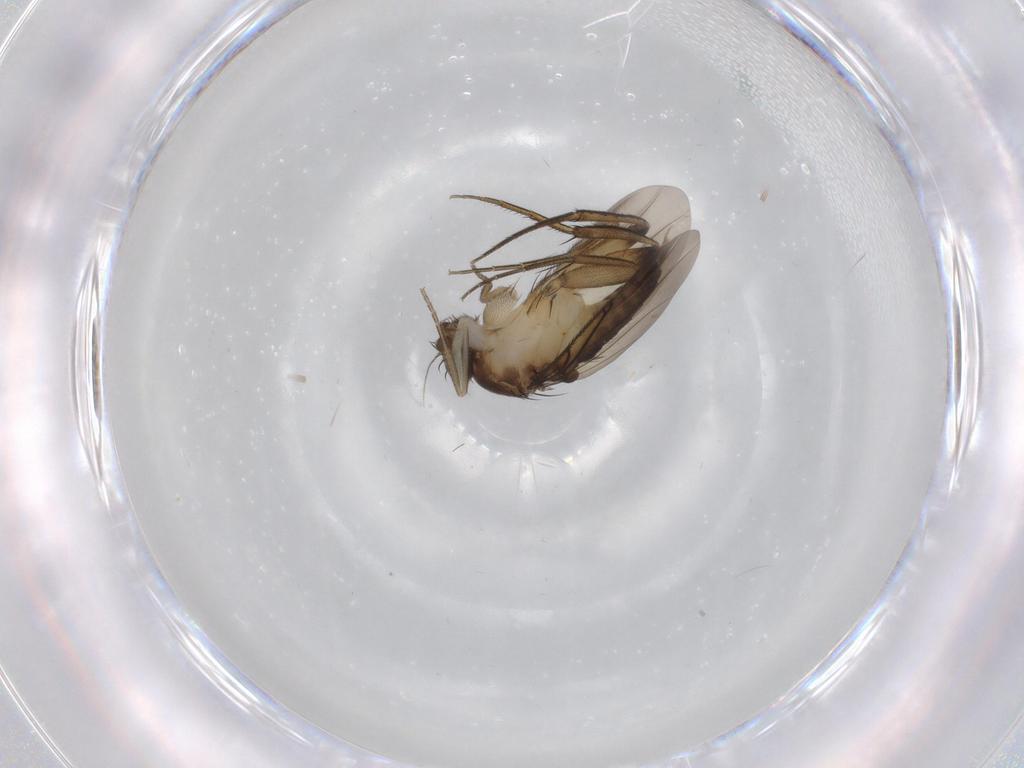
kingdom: Animalia
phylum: Arthropoda
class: Insecta
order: Diptera
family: Phoridae
